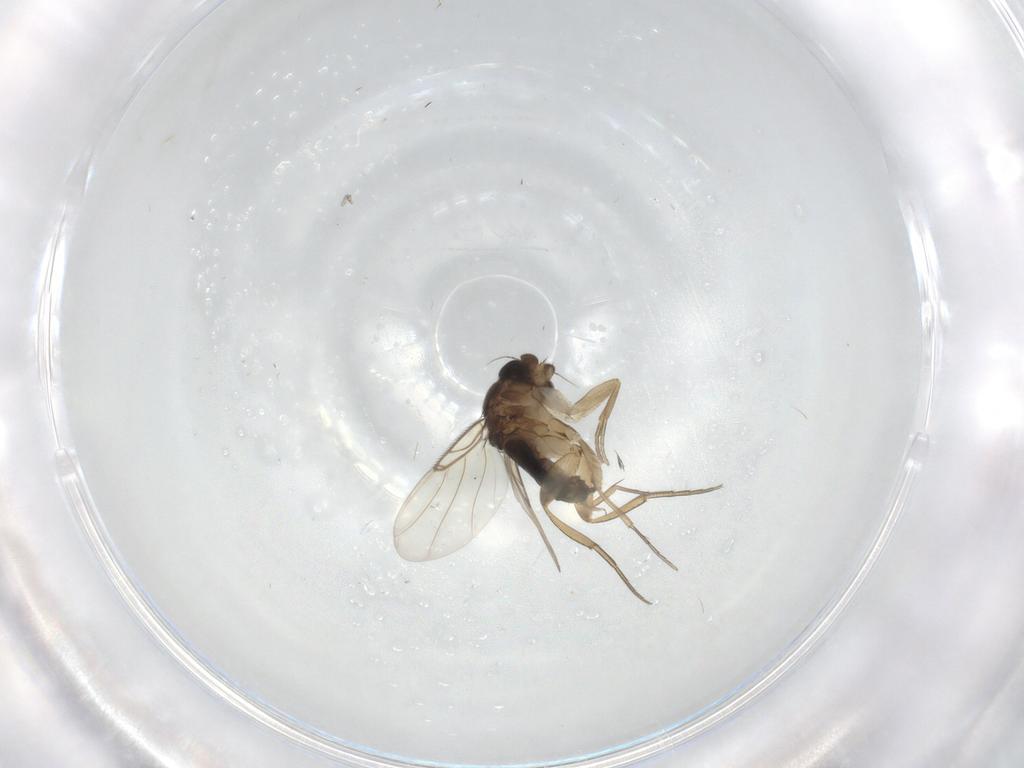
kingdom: Animalia
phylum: Arthropoda
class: Insecta
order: Diptera
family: Phoridae
